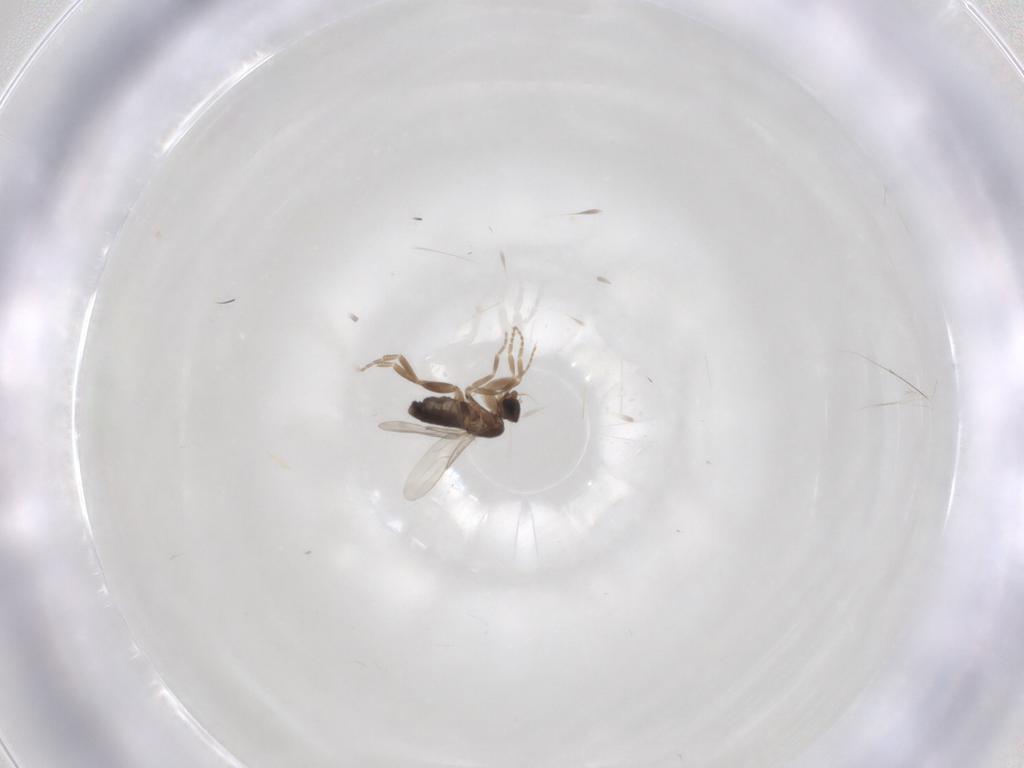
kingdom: Animalia
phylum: Arthropoda
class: Insecta
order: Diptera
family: Phoridae
